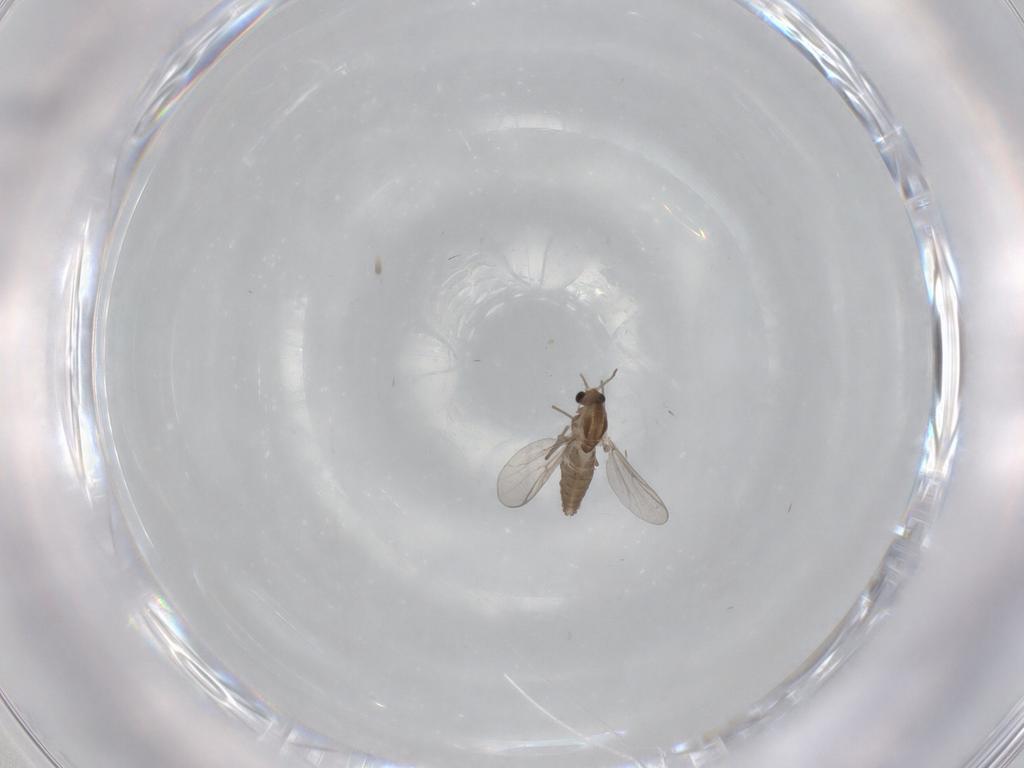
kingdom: Animalia
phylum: Arthropoda
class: Insecta
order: Diptera
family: Chironomidae
